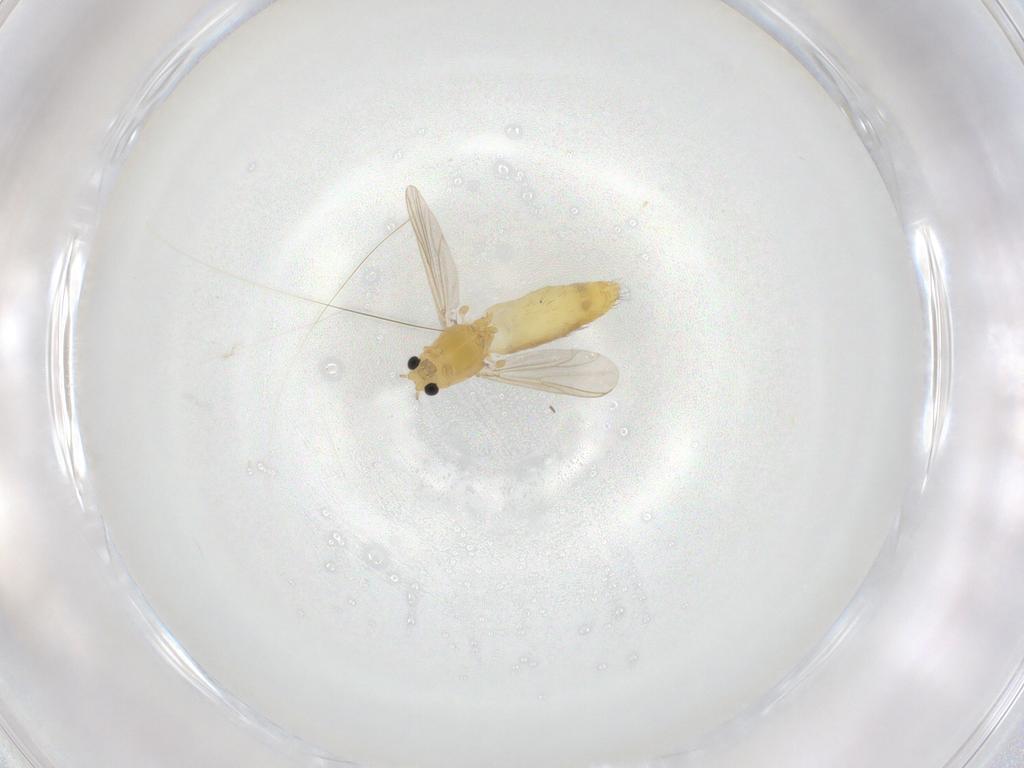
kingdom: Animalia
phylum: Arthropoda
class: Insecta
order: Diptera
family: Chironomidae
